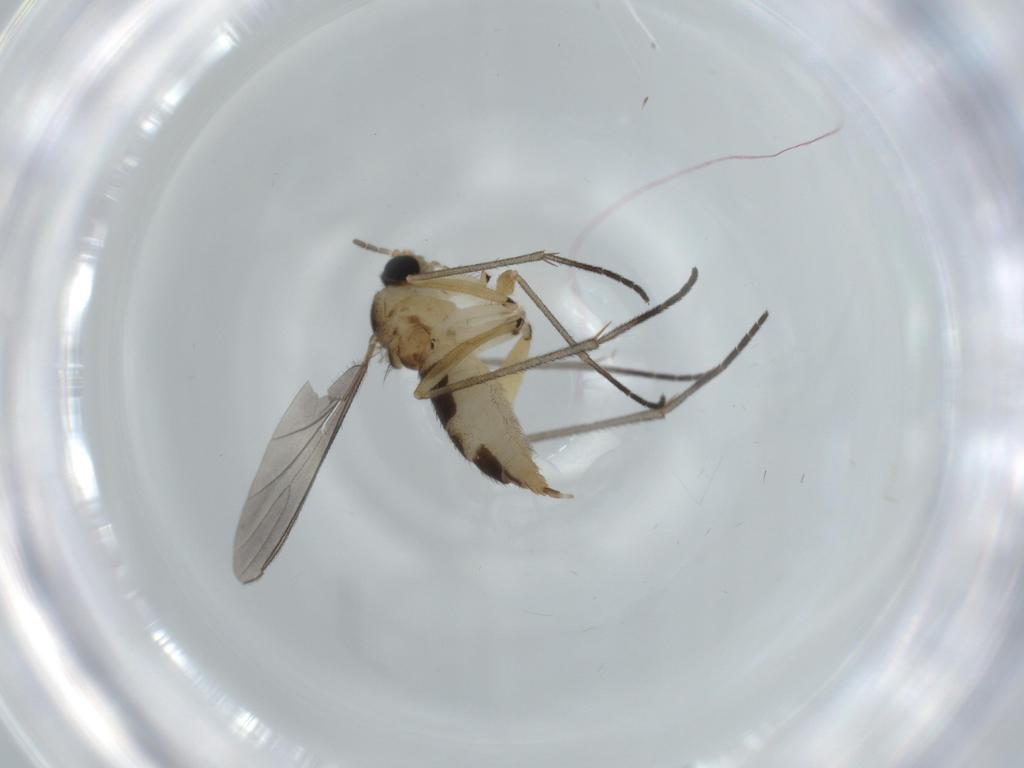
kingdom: Animalia
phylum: Arthropoda
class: Insecta
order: Diptera
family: Sciaridae
